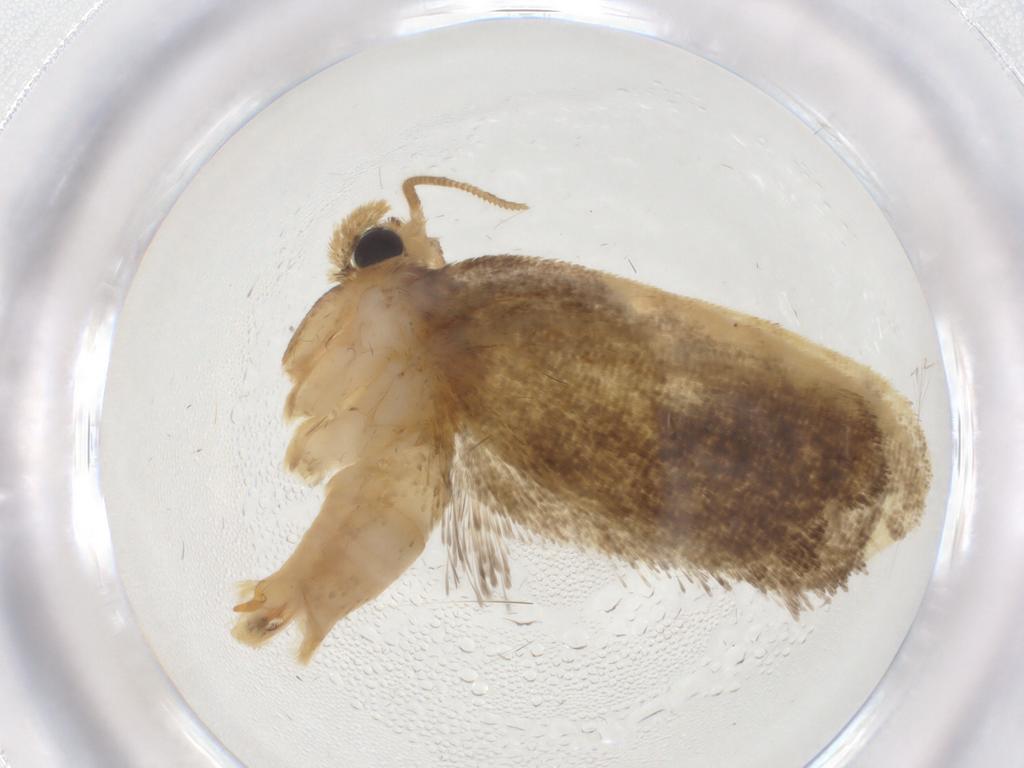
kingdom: Animalia
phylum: Arthropoda
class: Insecta
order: Lepidoptera
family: Psychidae
